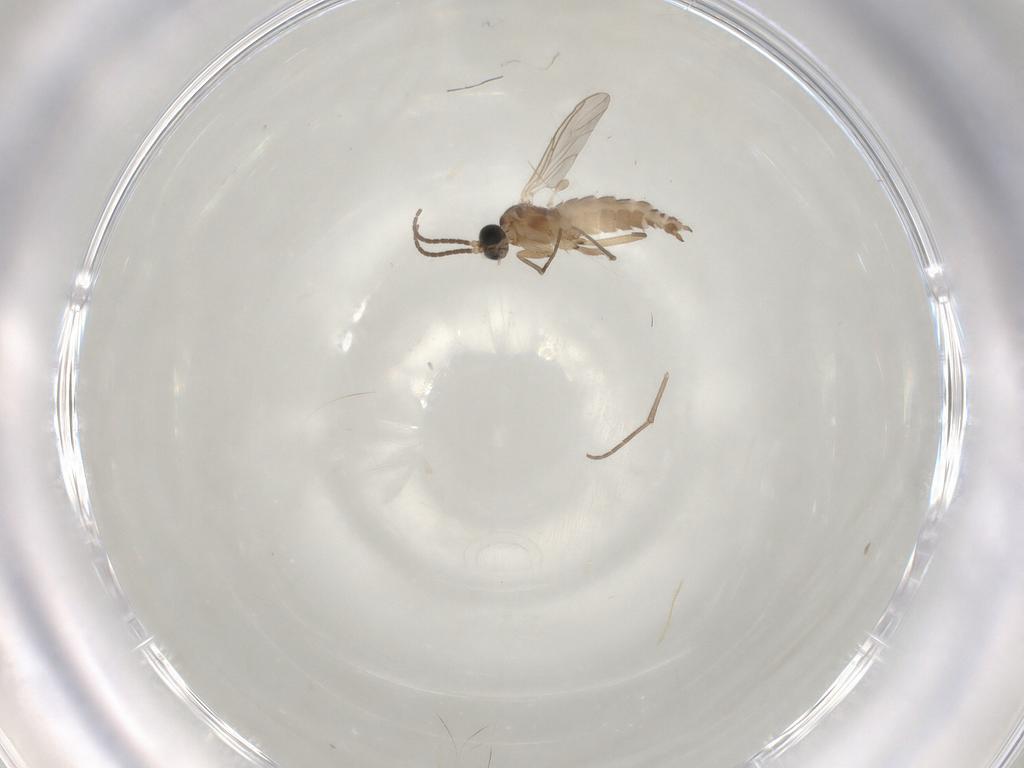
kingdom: Animalia
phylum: Arthropoda
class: Insecta
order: Diptera
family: Sciaridae
